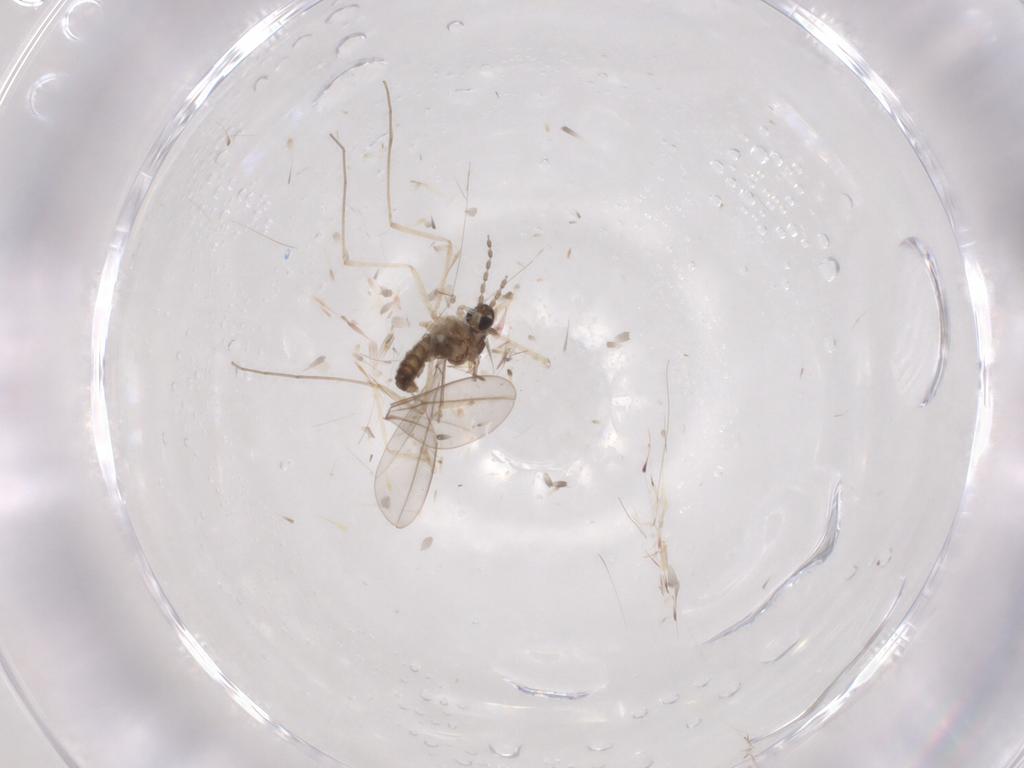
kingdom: Animalia
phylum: Arthropoda
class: Insecta
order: Diptera
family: Cecidomyiidae
